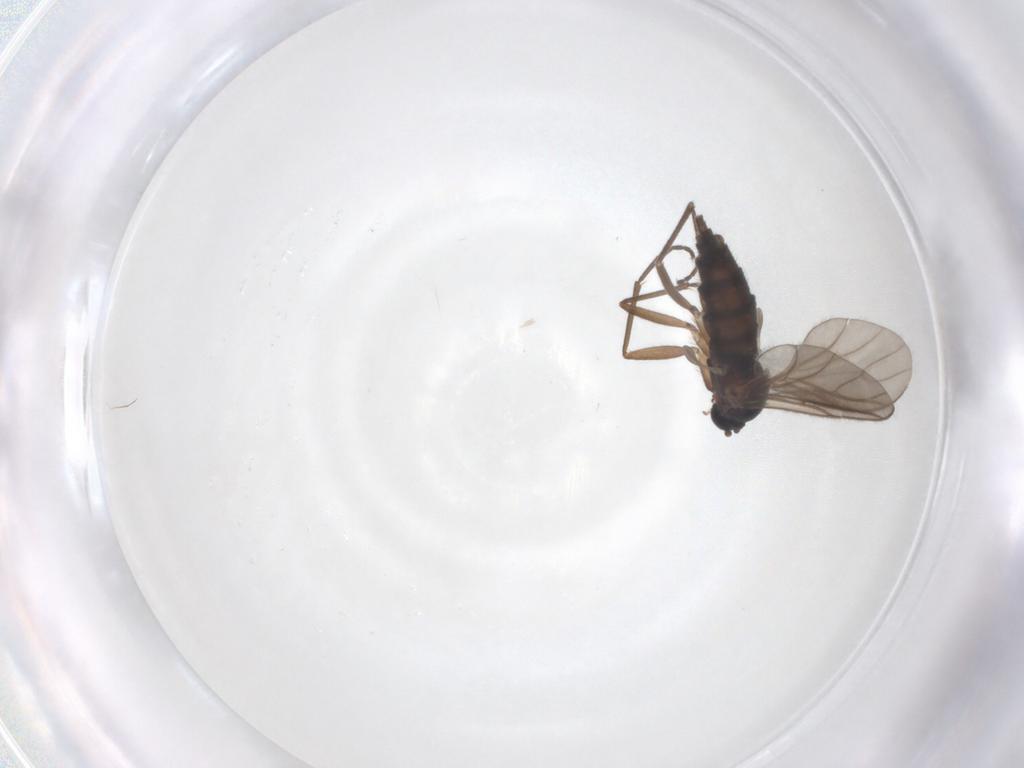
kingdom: Animalia
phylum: Arthropoda
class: Insecta
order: Diptera
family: Sciaridae
